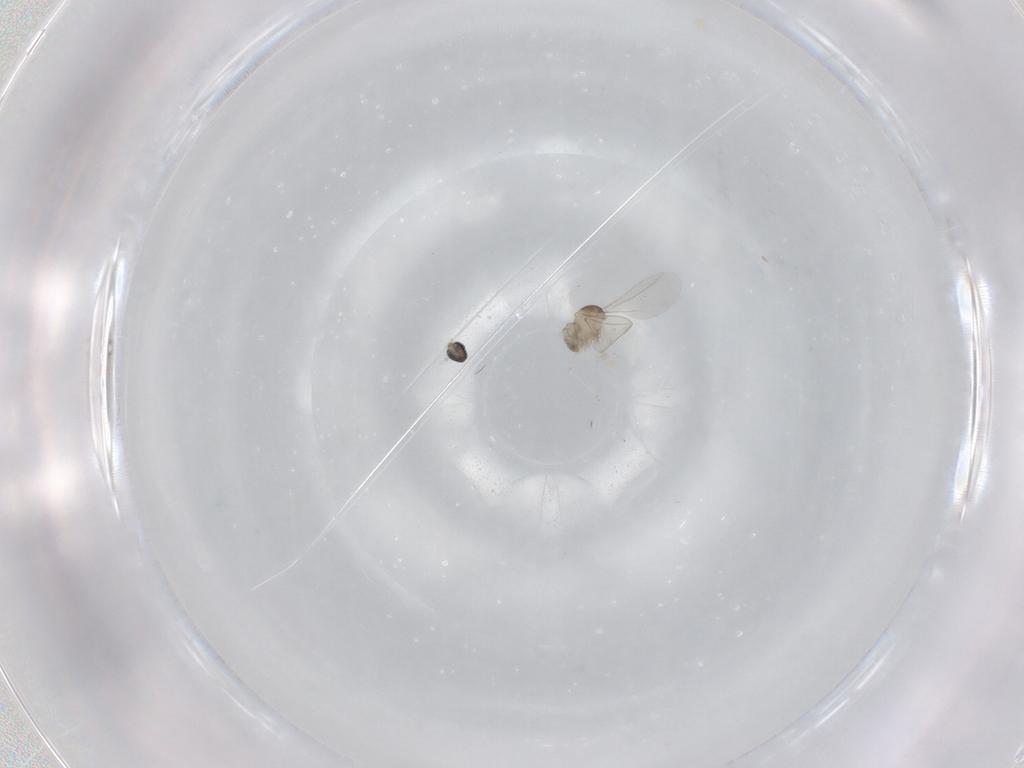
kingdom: Animalia
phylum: Arthropoda
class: Insecta
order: Diptera
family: Cecidomyiidae
